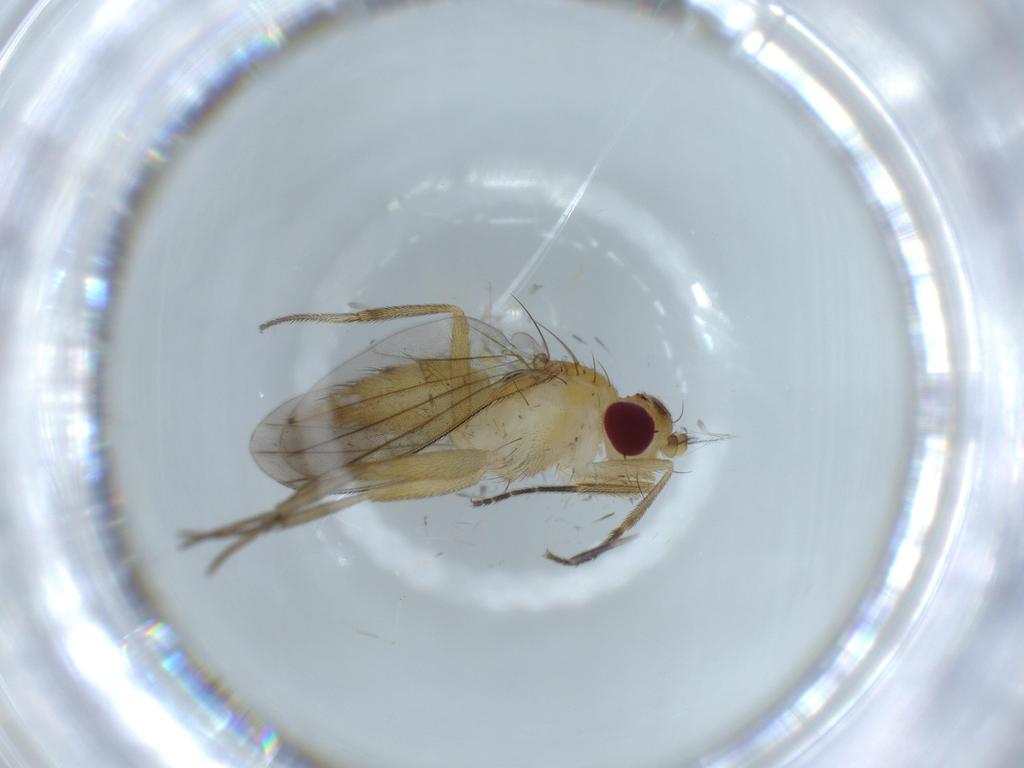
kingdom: Animalia
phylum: Arthropoda
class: Insecta
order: Diptera
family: Clusiidae
